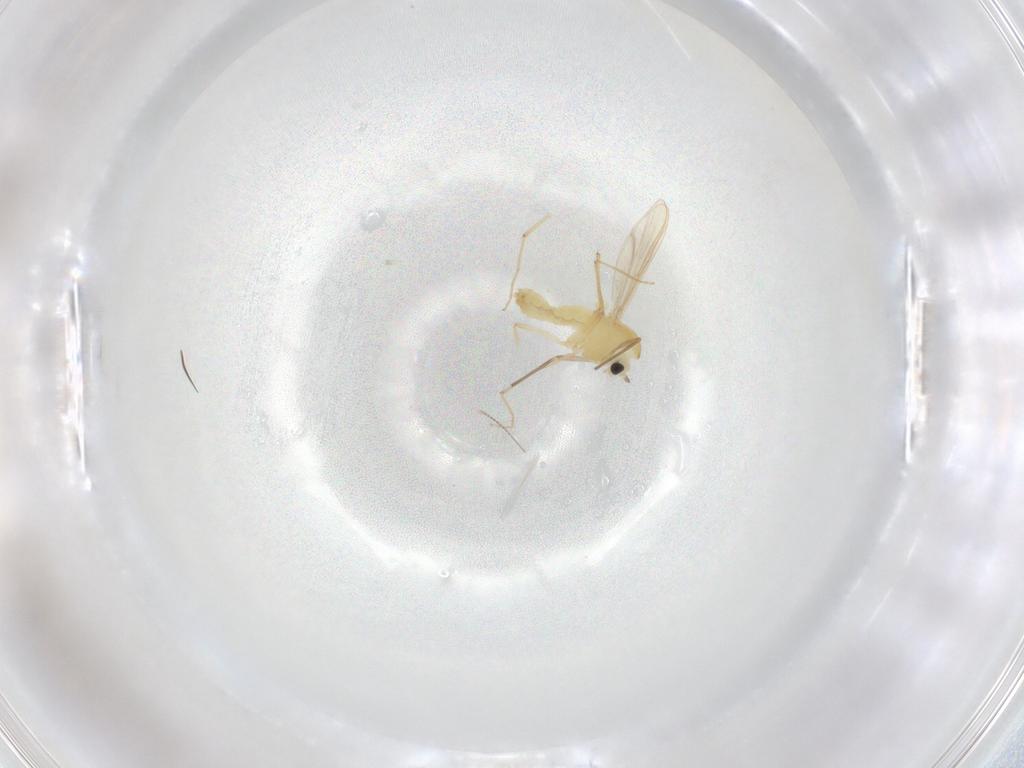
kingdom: Animalia
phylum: Arthropoda
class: Insecta
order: Diptera
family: Chironomidae
